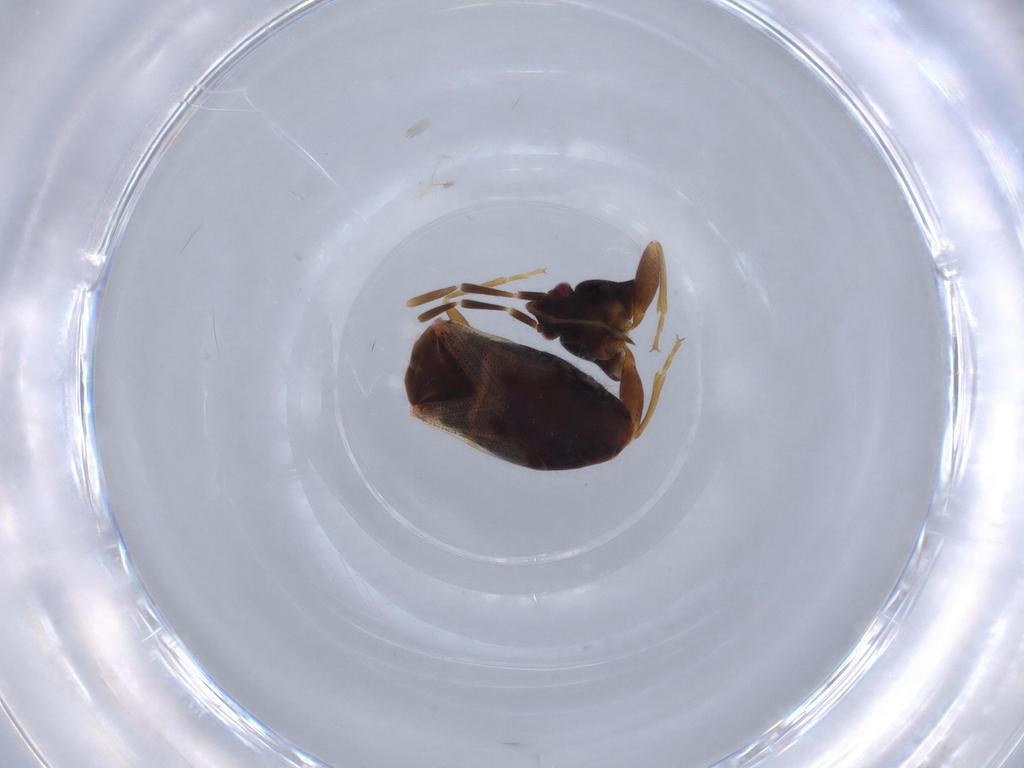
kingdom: Animalia
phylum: Arthropoda
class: Insecta
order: Hemiptera
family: Rhyparochromidae
